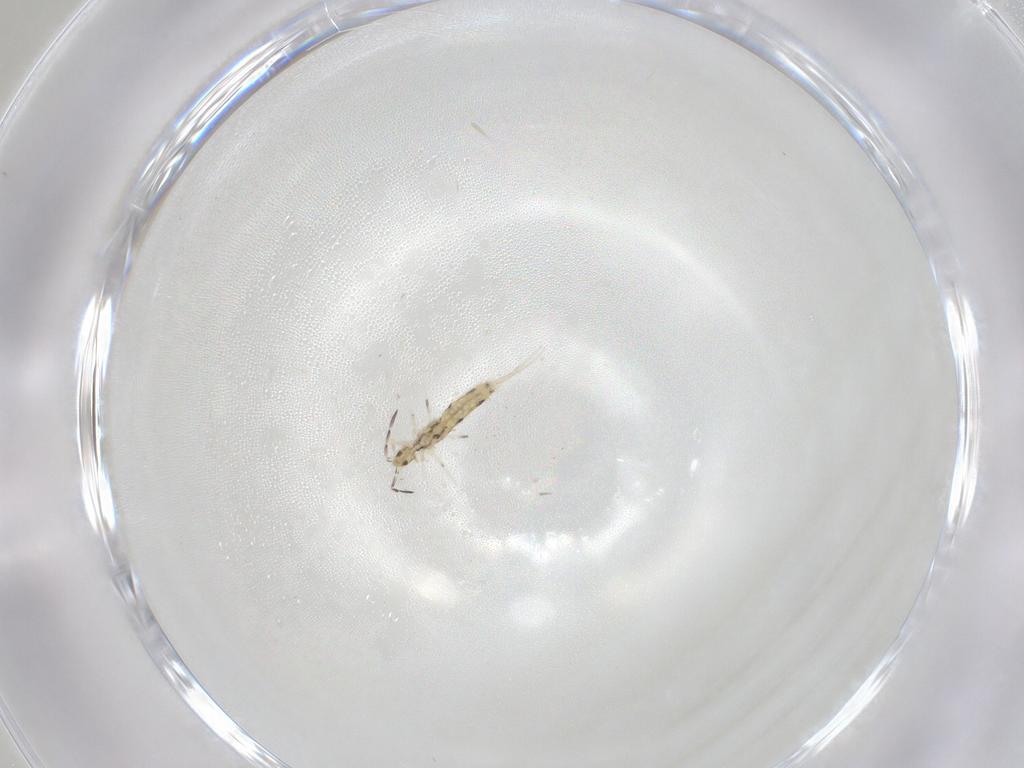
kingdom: Animalia
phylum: Arthropoda
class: Collembola
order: Entomobryomorpha
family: Entomobryidae
